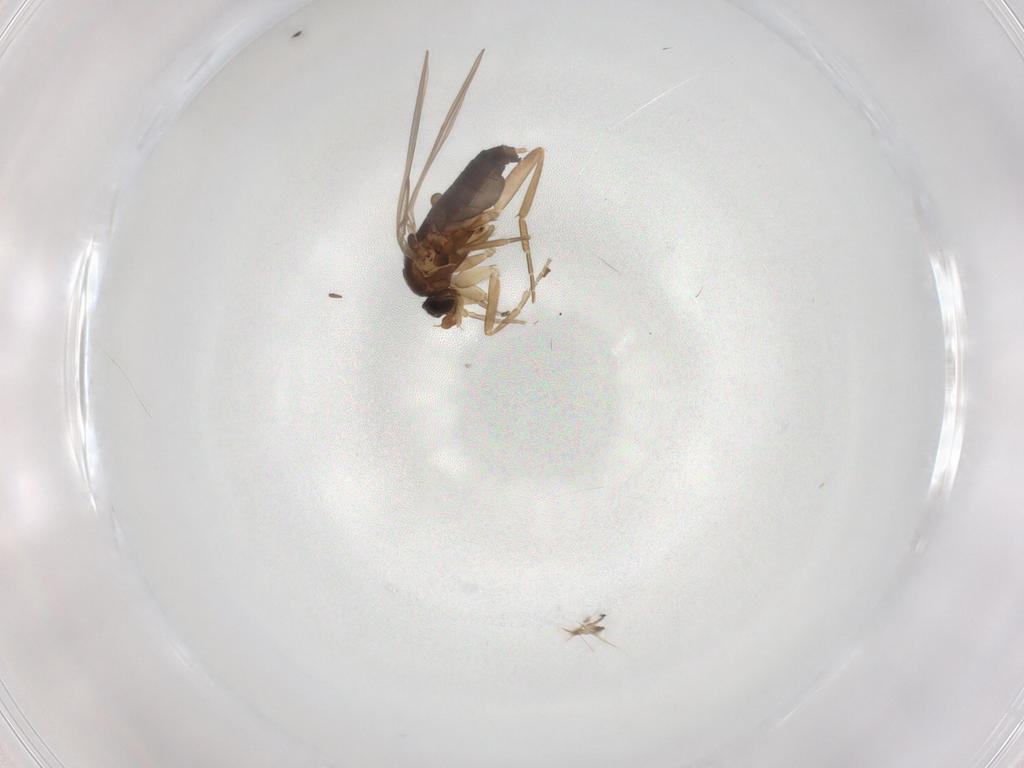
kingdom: Animalia
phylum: Arthropoda
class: Insecta
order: Diptera
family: Phoridae
